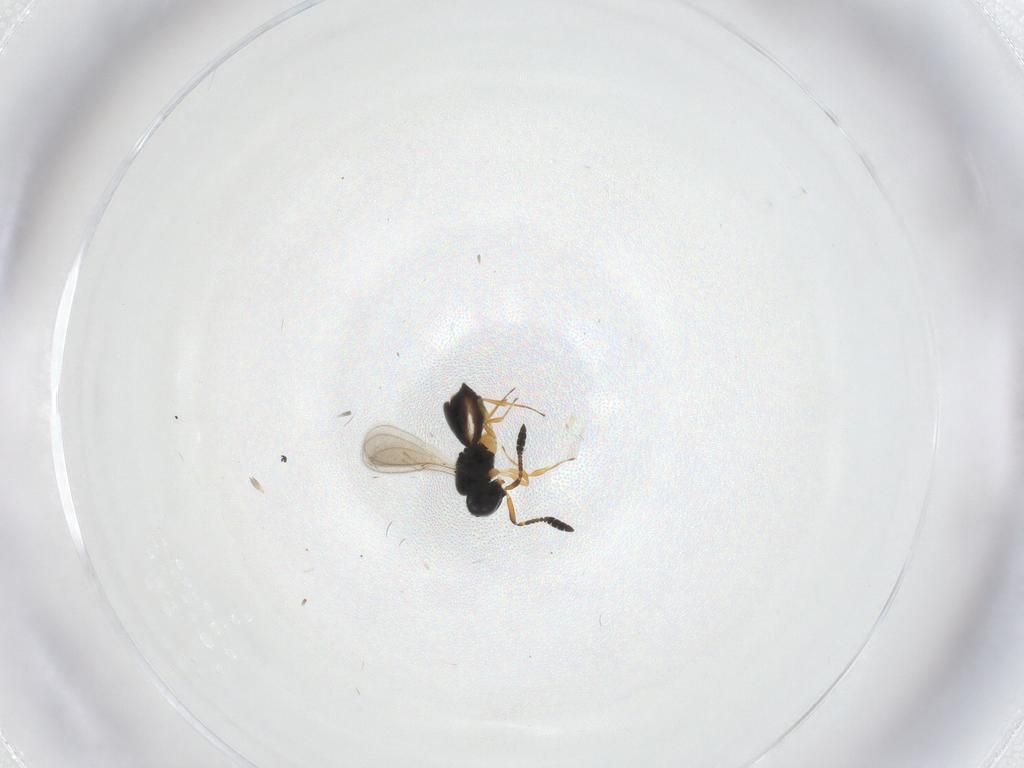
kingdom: Animalia
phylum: Arthropoda
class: Insecta
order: Hymenoptera
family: Scelionidae
